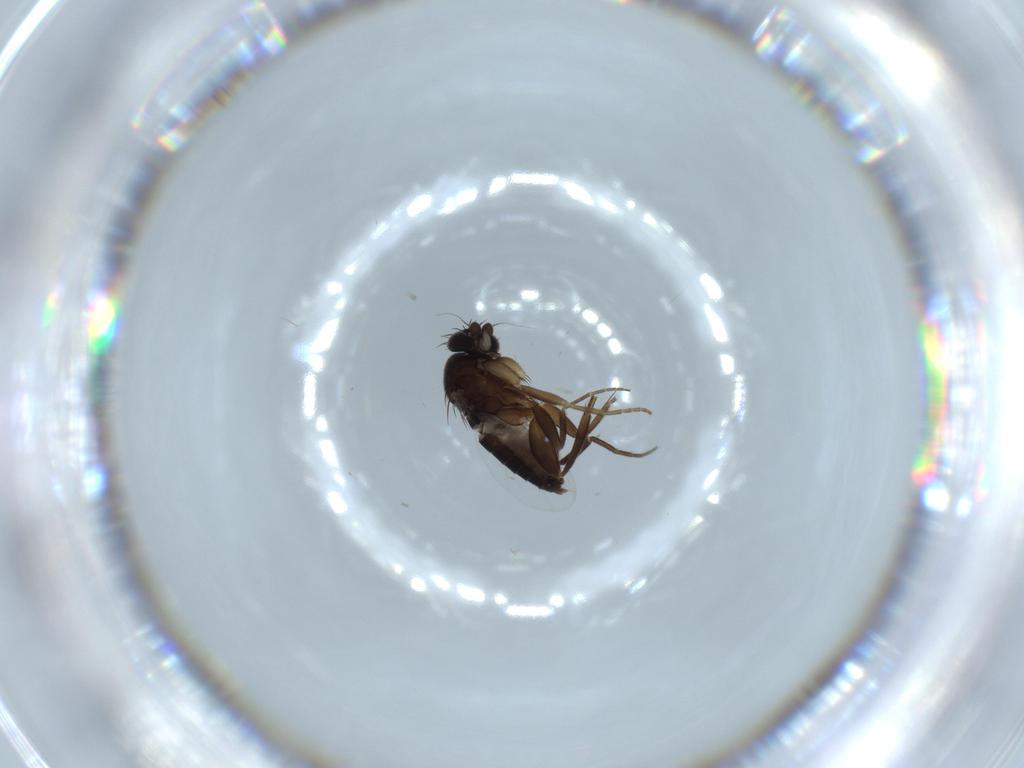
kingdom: Animalia
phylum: Arthropoda
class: Insecta
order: Diptera
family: Phoridae
